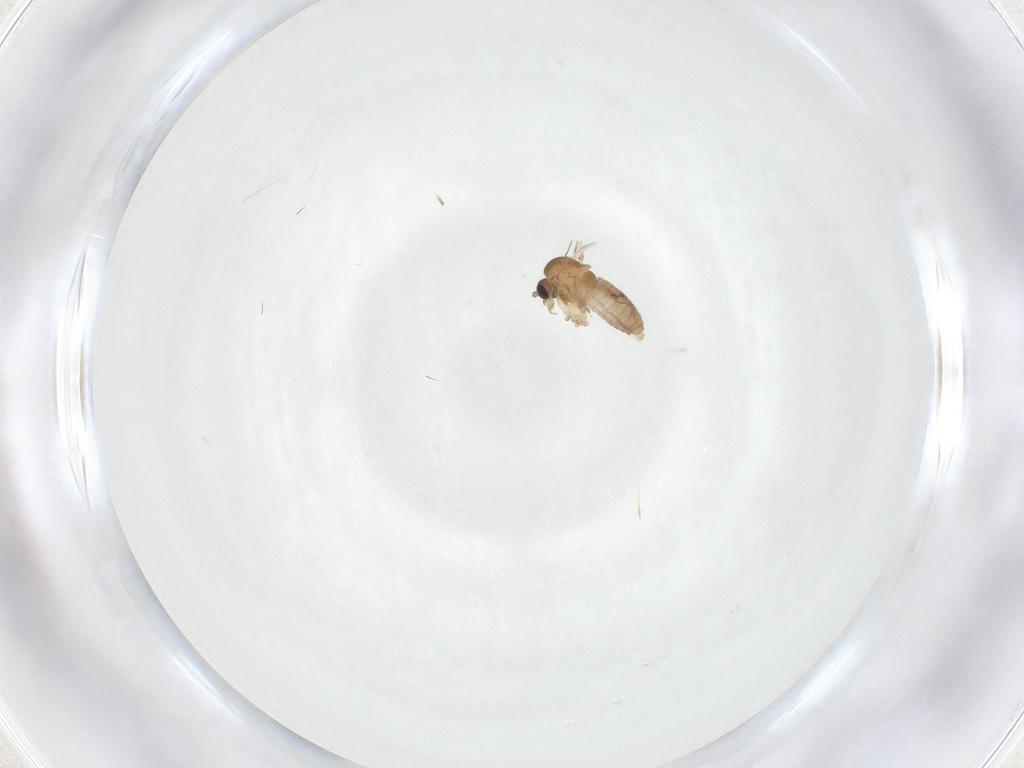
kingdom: Animalia
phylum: Arthropoda
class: Insecta
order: Diptera
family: Psychodidae
